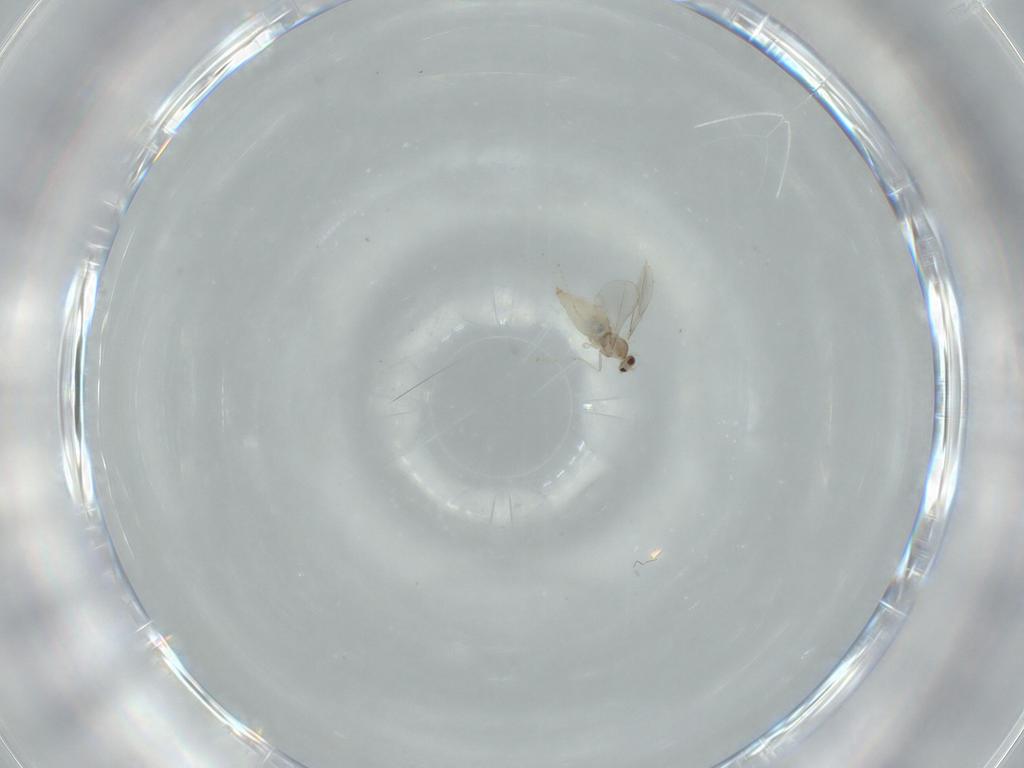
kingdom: Animalia
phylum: Arthropoda
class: Insecta
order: Diptera
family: Cecidomyiidae
